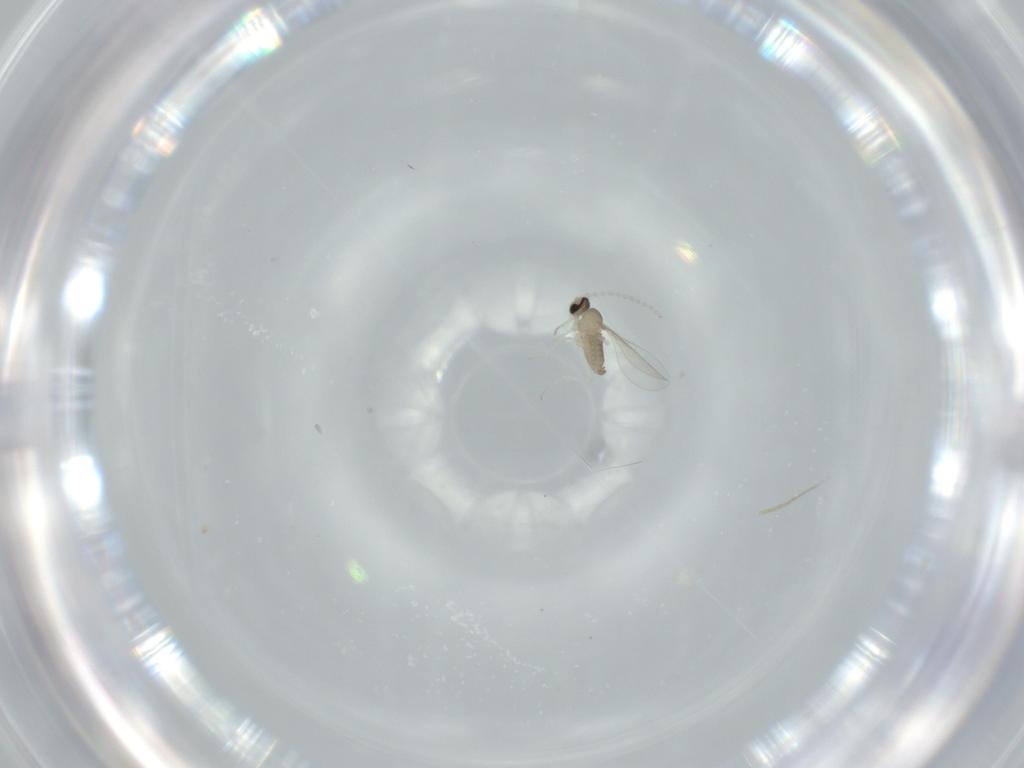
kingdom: Animalia
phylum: Arthropoda
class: Insecta
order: Diptera
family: Cecidomyiidae
